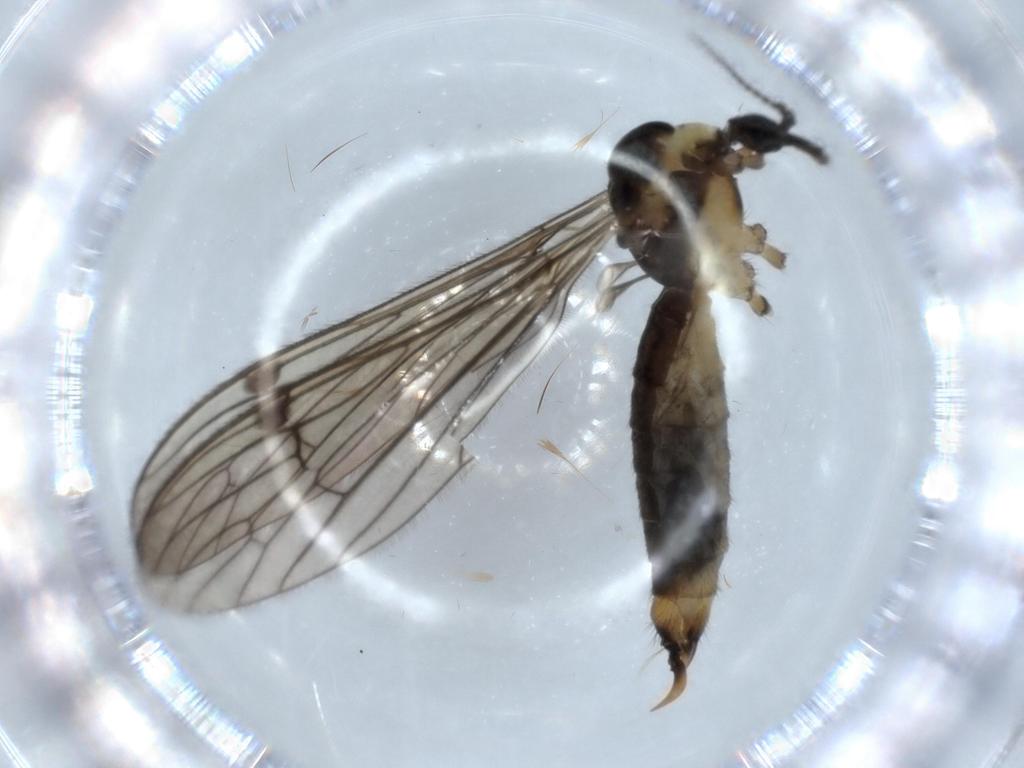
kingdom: Animalia
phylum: Arthropoda
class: Insecta
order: Diptera
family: Limoniidae
